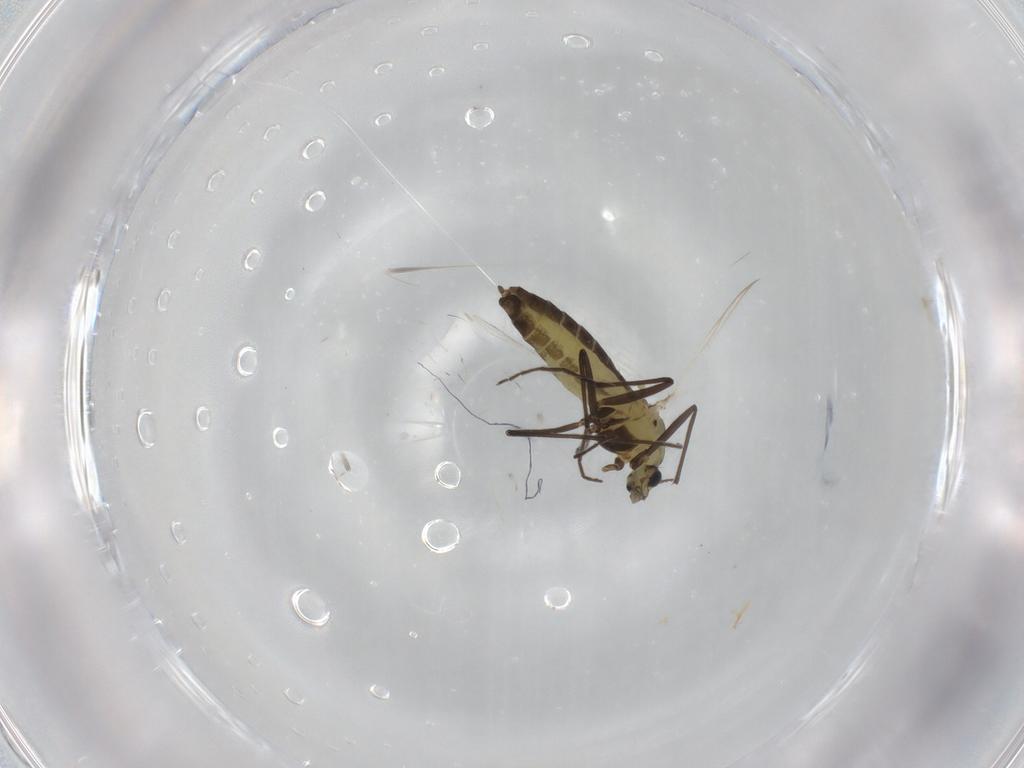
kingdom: Animalia
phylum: Arthropoda
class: Insecta
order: Diptera
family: Chironomidae
